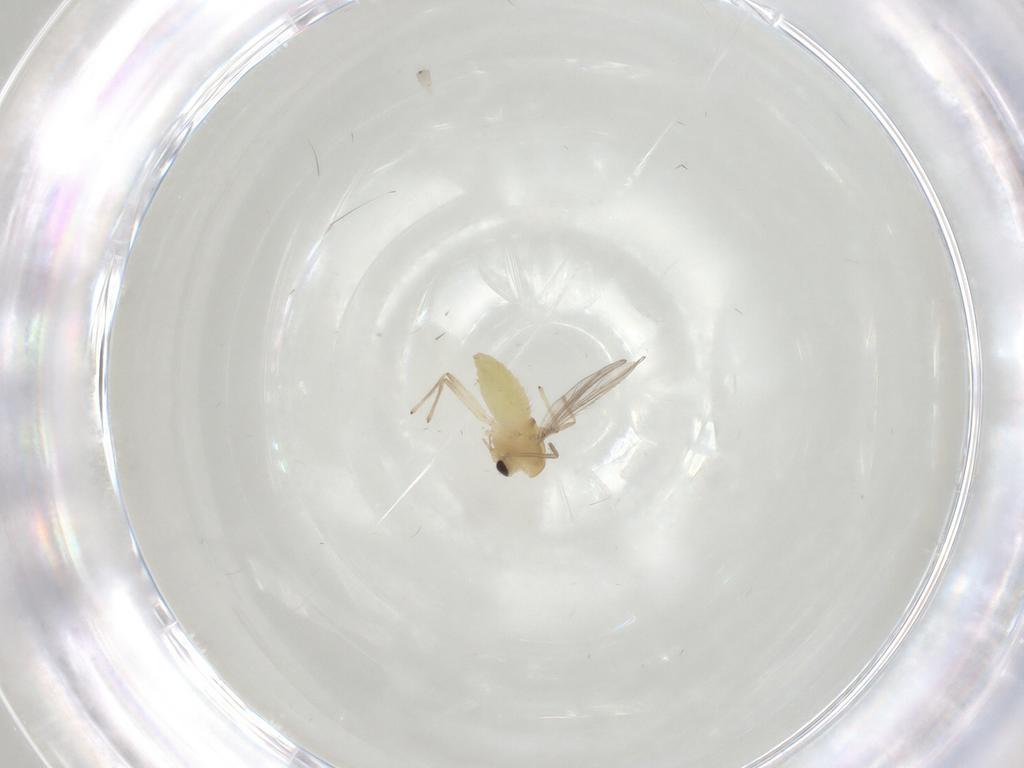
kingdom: Animalia
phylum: Arthropoda
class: Insecta
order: Diptera
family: Chironomidae
